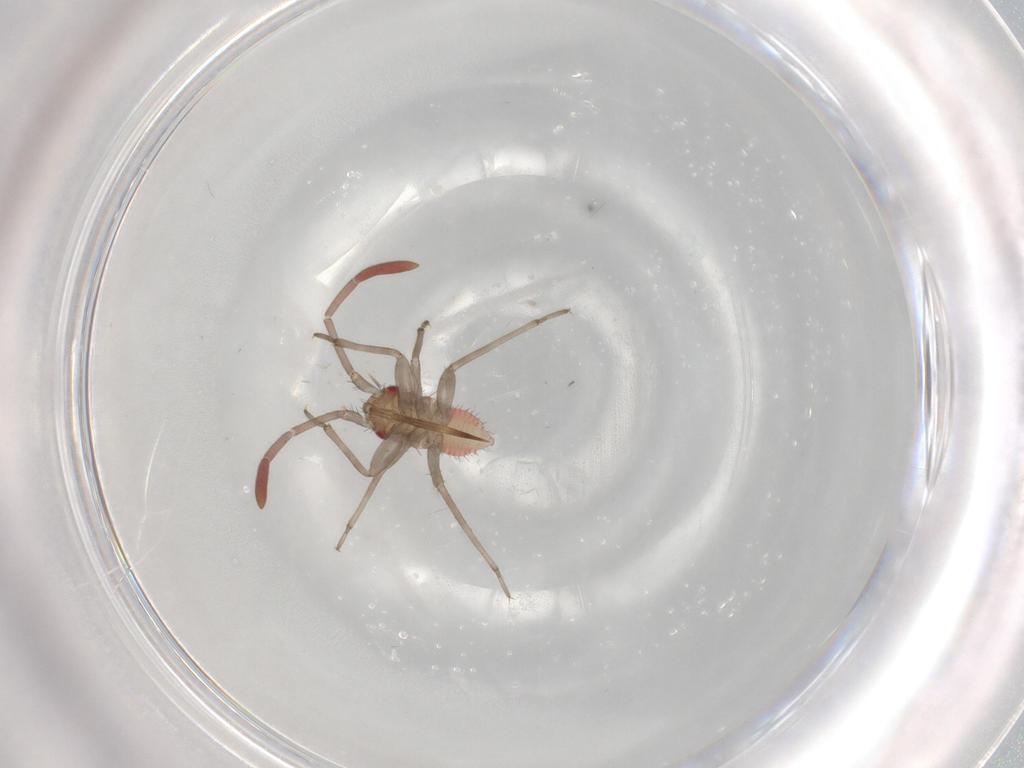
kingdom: Animalia
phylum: Arthropoda
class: Insecta
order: Hemiptera
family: Miridae
